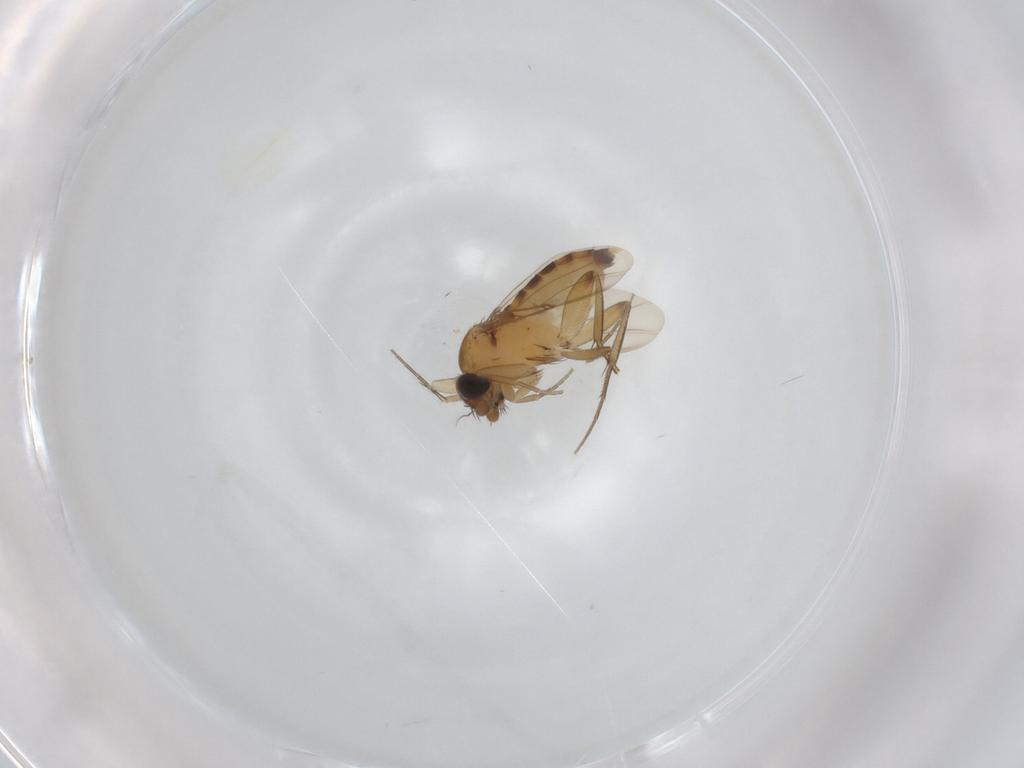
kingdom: Animalia
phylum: Arthropoda
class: Insecta
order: Diptera
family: Phoridae
